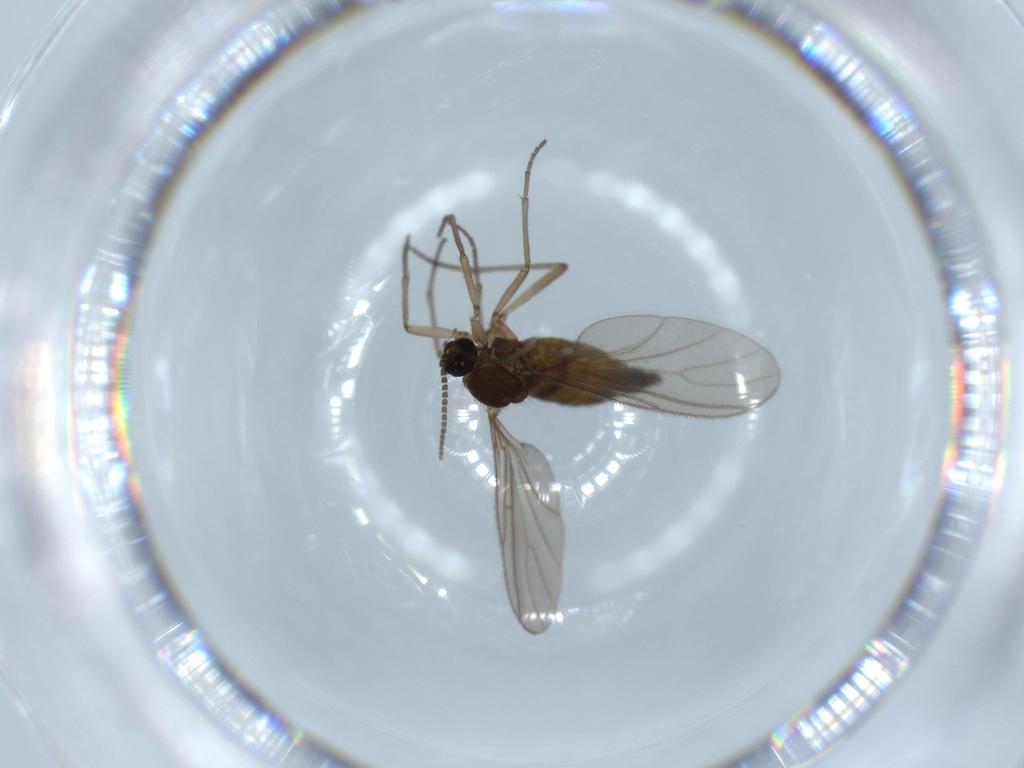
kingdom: Animalia
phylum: Arthropoda
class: Insecta
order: Diptera
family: Sciaridae
